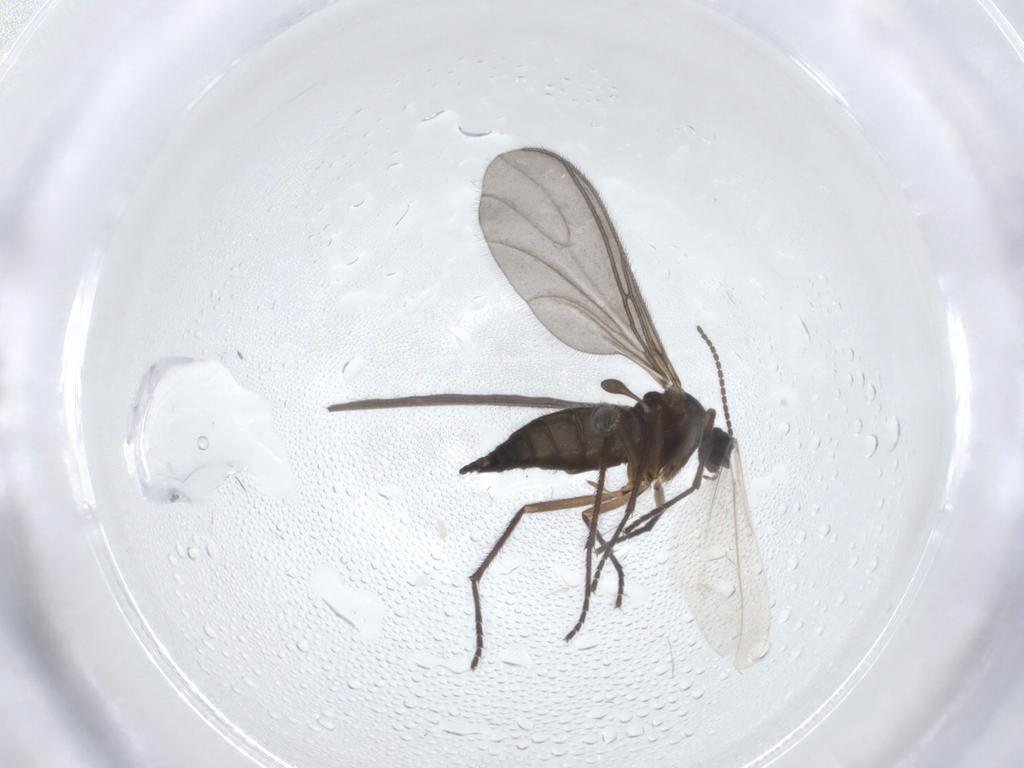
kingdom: Animalia
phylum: Arthropoda
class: Insecta
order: Diptera
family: Sciaridae
